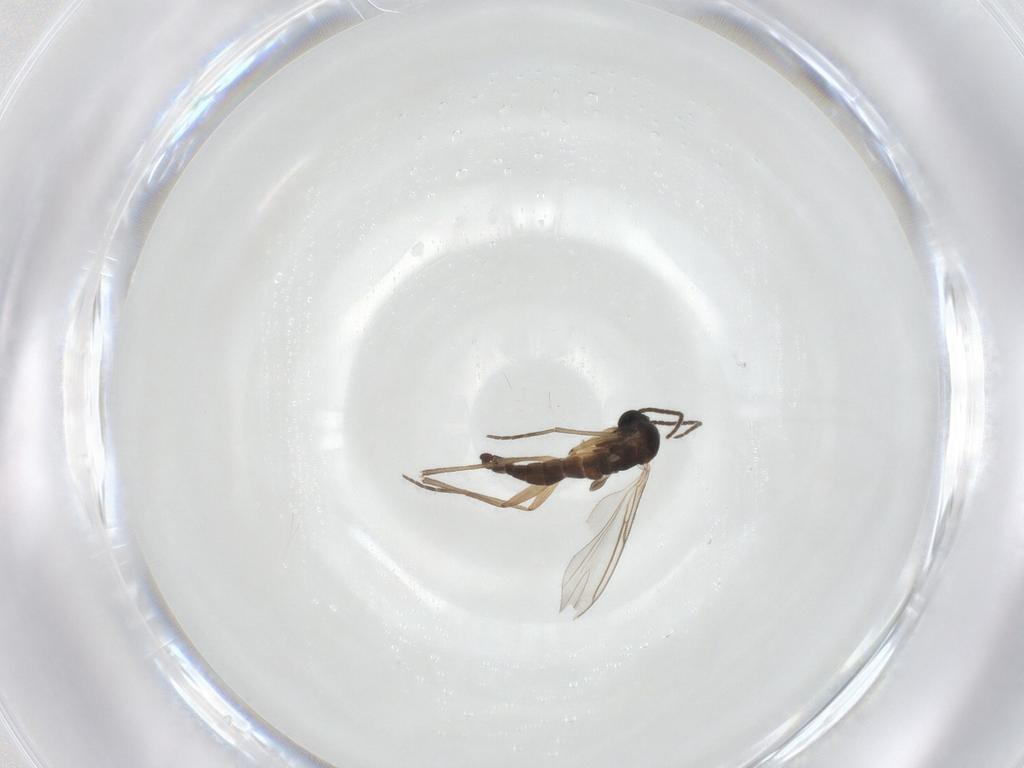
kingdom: Animalia
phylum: Arthropoda
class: Insecta
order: Diptera
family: Sciaridae
